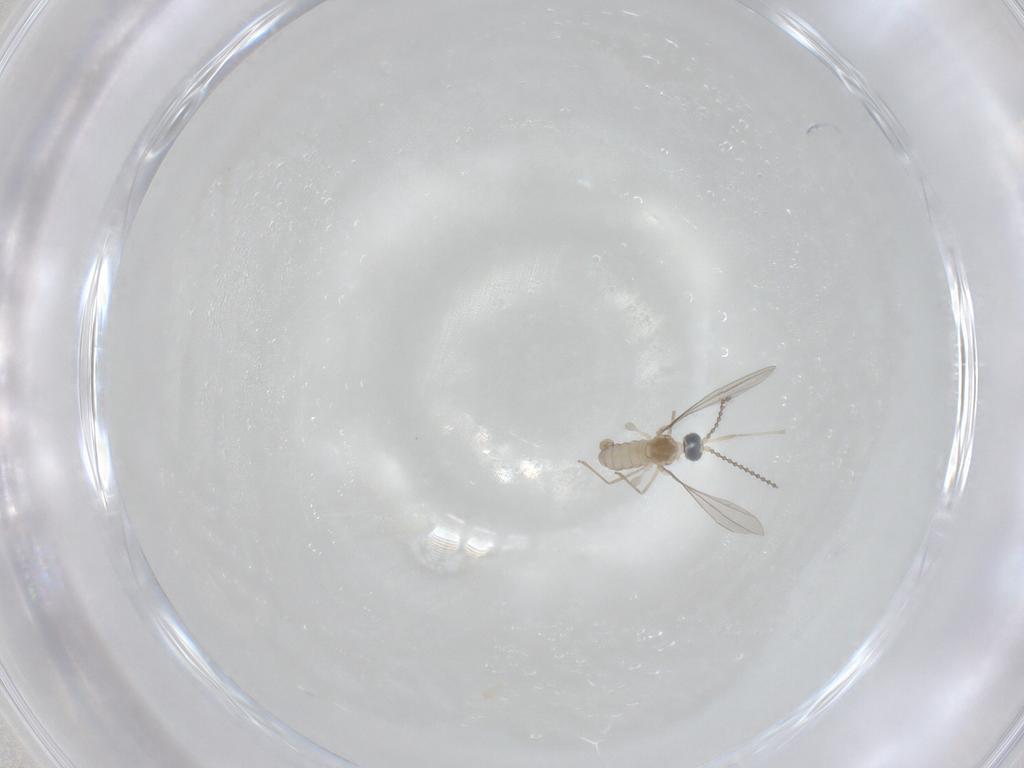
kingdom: Animalia
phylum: Arthropoda
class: Insecta
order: Diptera
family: Cecidomyiidae
